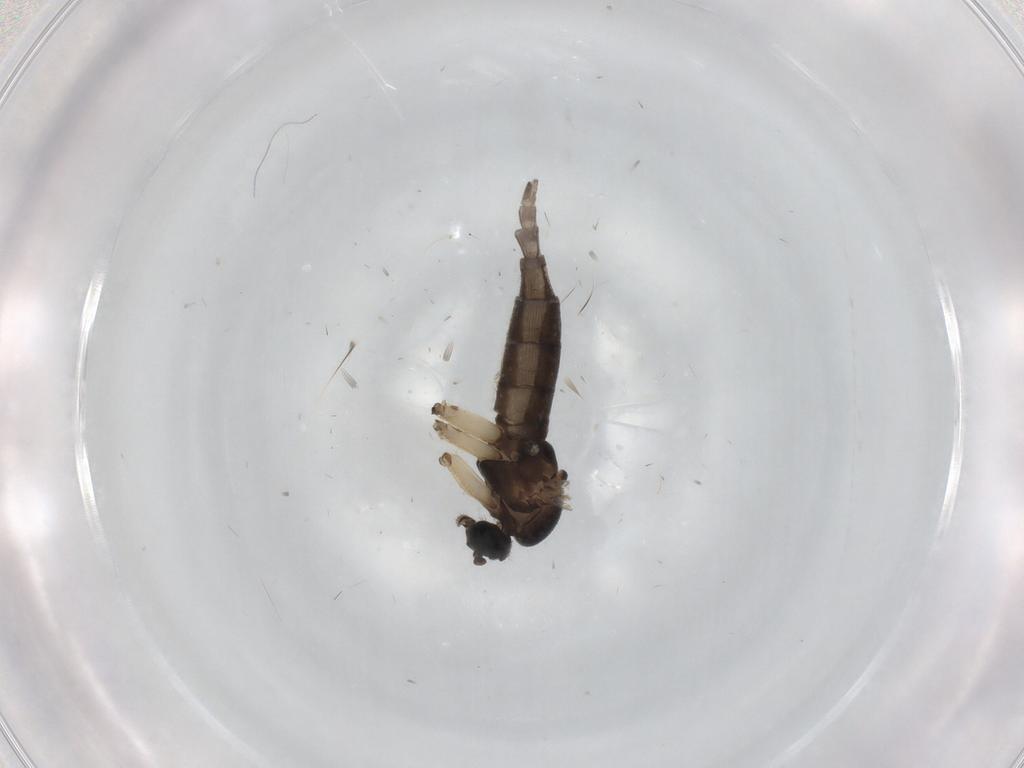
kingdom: Animalia
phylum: Arthropoda
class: Insecta
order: Diptera
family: Sciaridae
